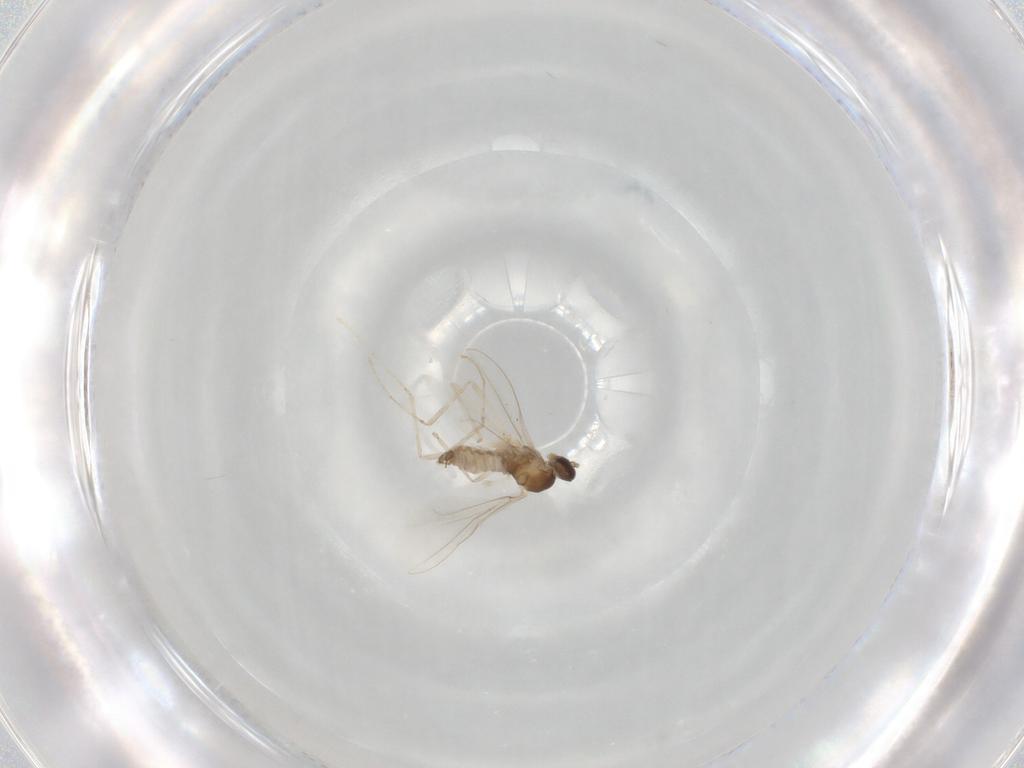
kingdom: Animalia
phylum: Arthropoda
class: Insecta
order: Diptera
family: Cecidomyiidae
